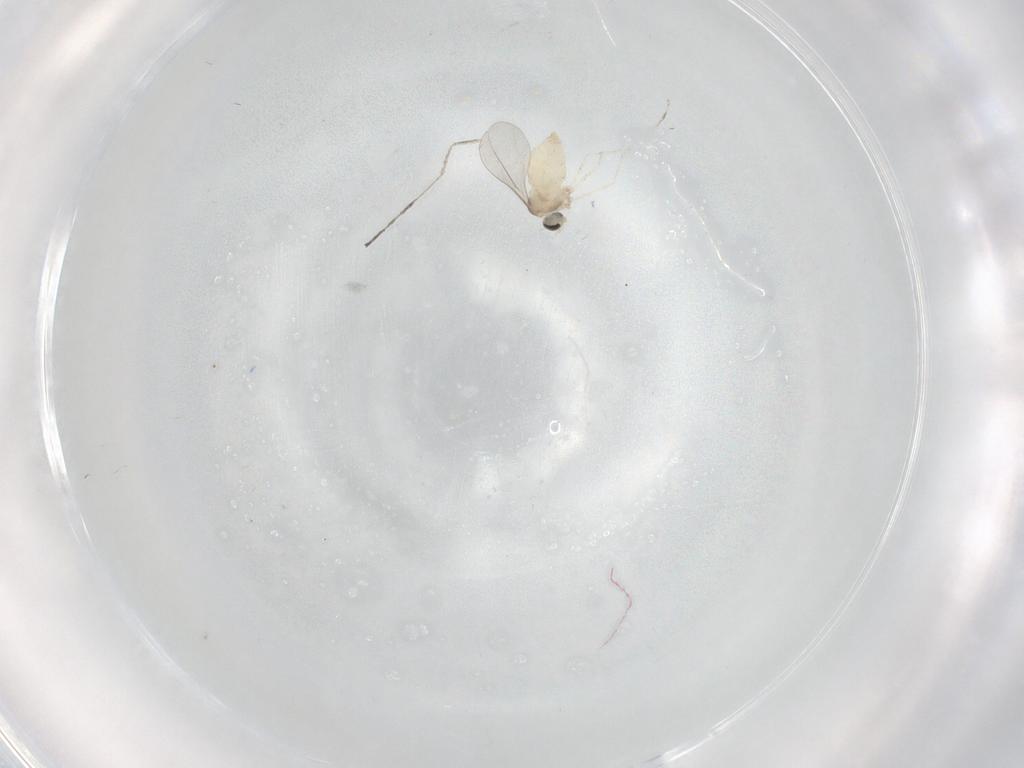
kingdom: Animalia
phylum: Arthropoda
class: Insecta
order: Diptera
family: Cecidomyiidae
